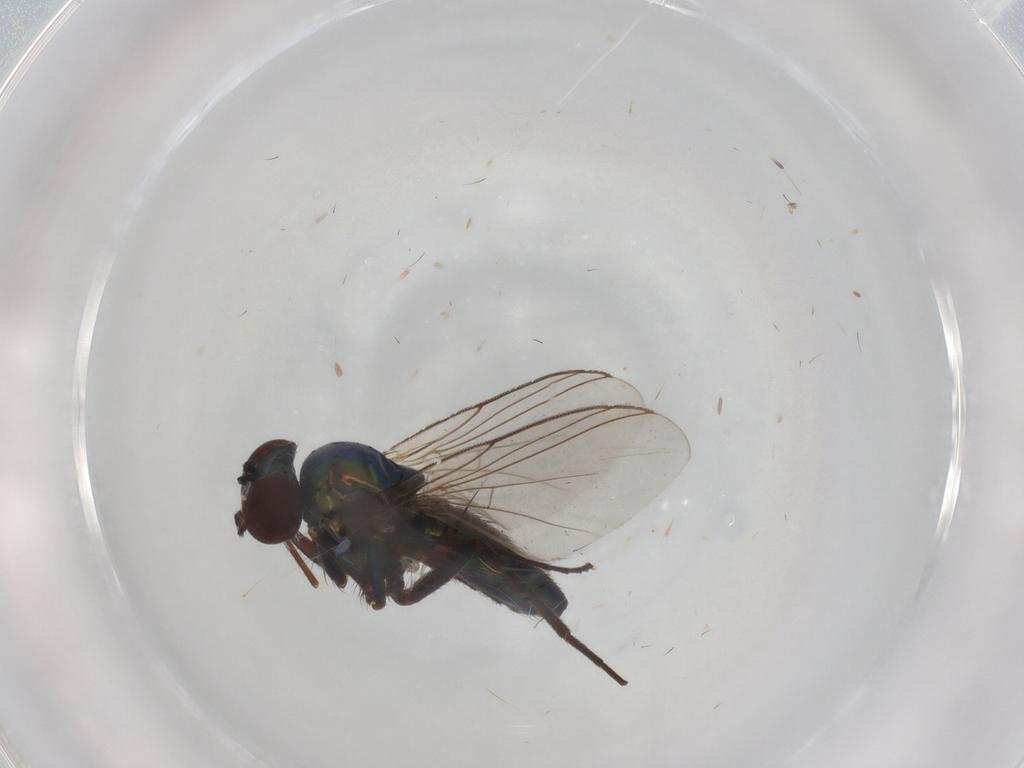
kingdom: Animalia
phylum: Arthropoda
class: Insecta
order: Diptera
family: Dolichopodidae
